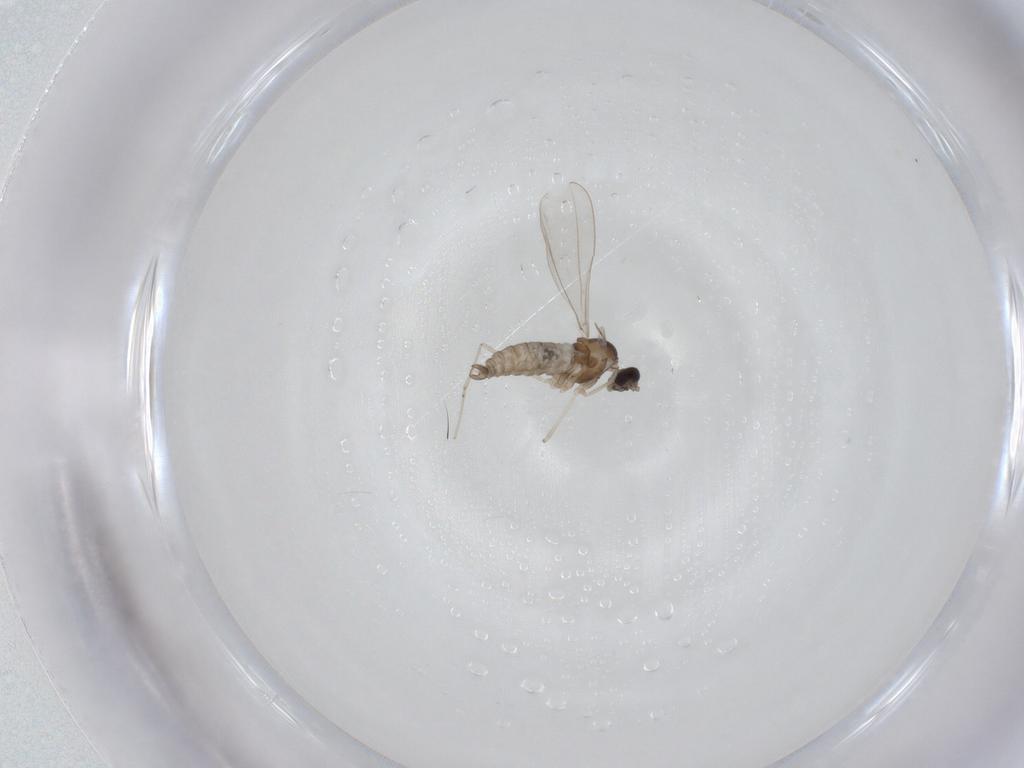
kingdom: Animalia
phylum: Arthropoda
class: Insecta
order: Diptera
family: Cecidomyiidae
